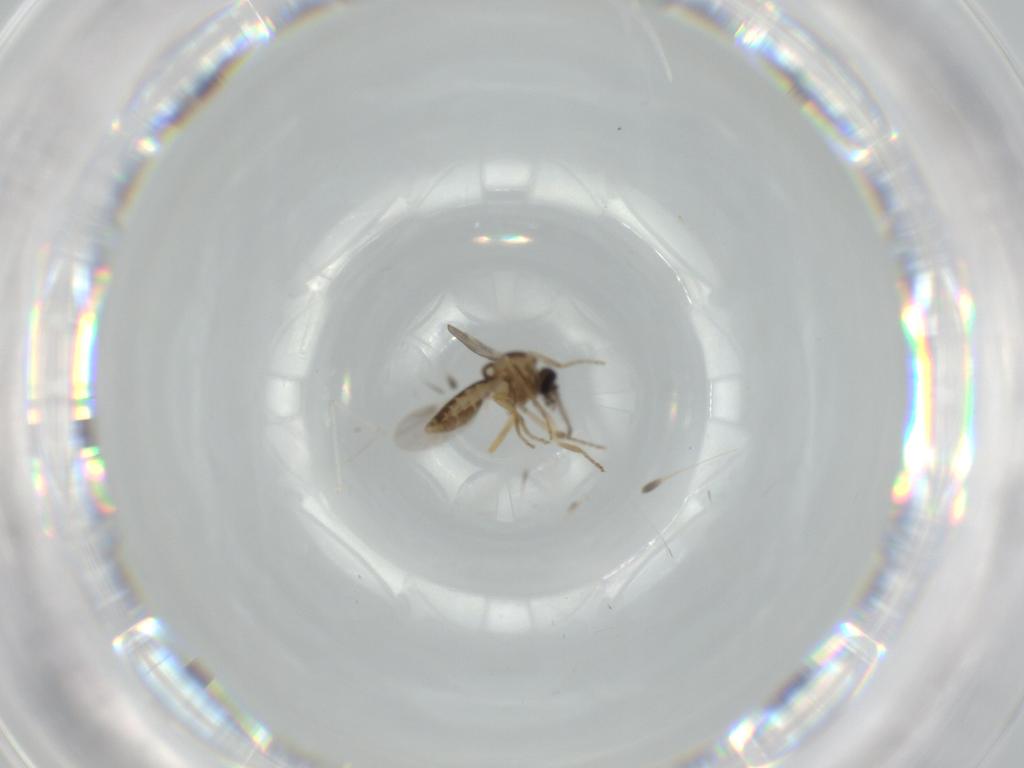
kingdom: Animalia
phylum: Arthropoda
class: Insecta
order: Diptera
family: Ceratopogonidae
